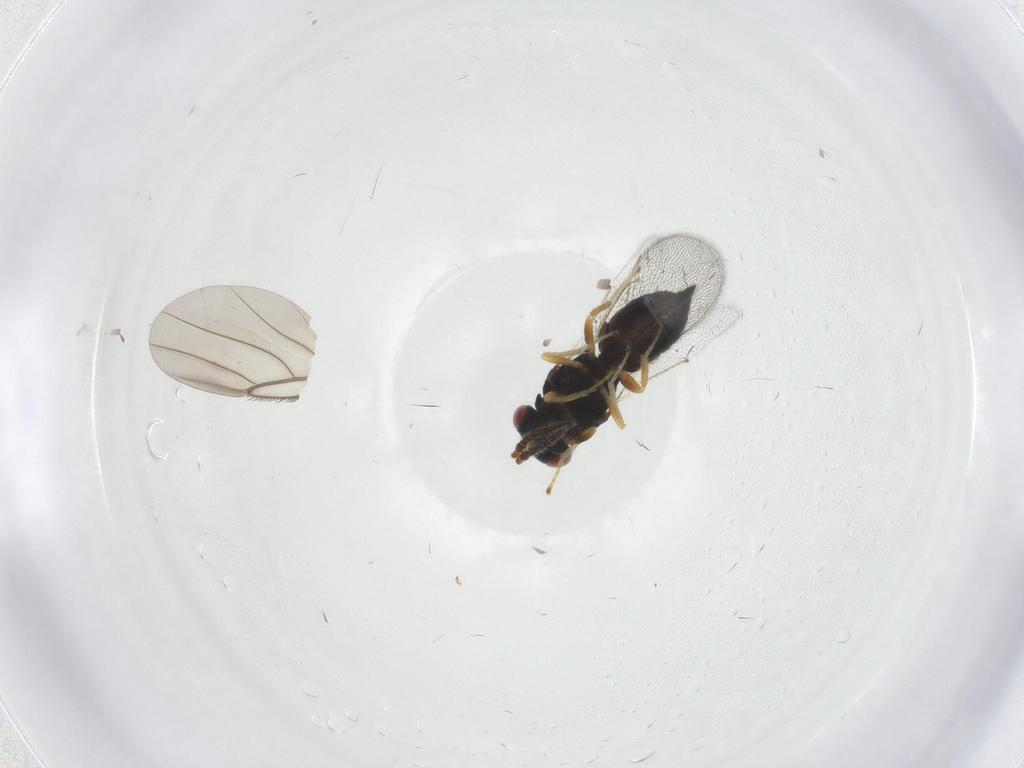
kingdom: Animalia
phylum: Arthropoda
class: Insecta
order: Hymenoptera
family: Eulophidae
